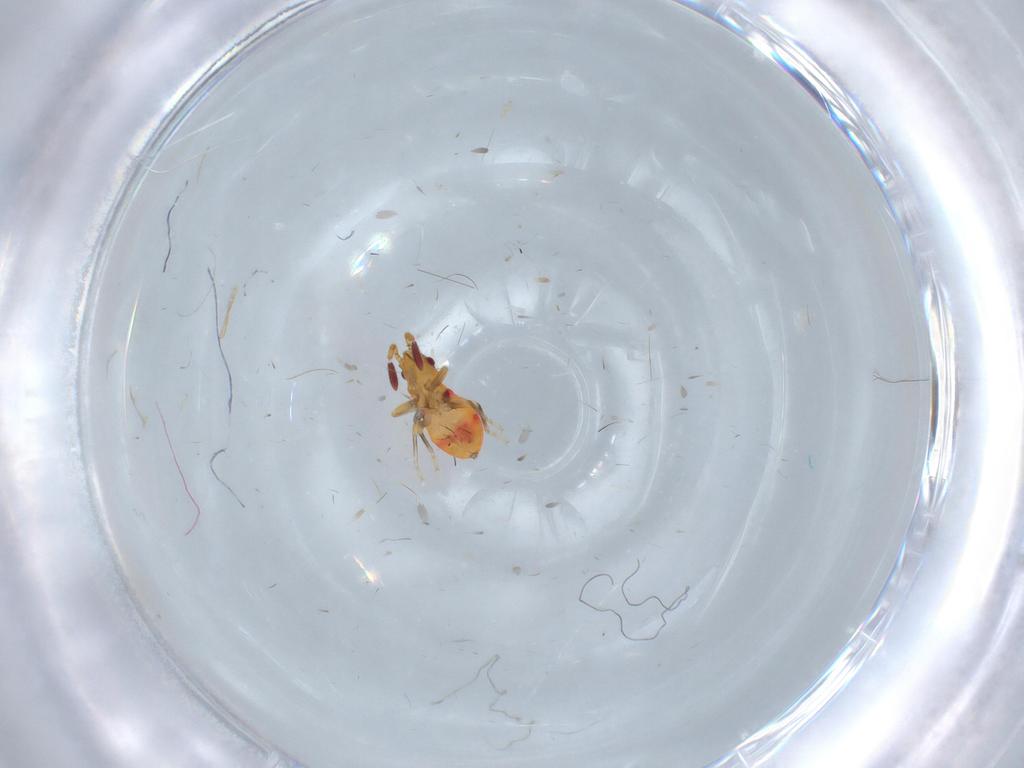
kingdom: Animalia
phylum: Arthropoda
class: Insecta
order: Hemiptera
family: Rhyparochromidae
